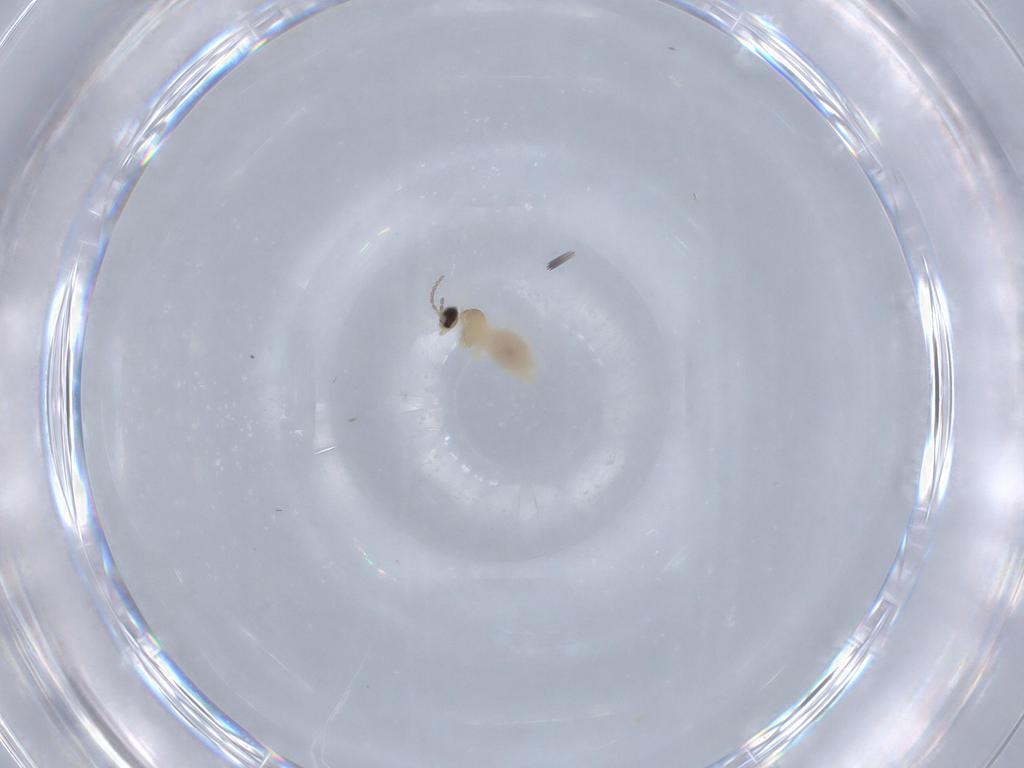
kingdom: Animalia
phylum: Arthropoda
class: Insecta
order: Diptera
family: Cecidomyiidae
